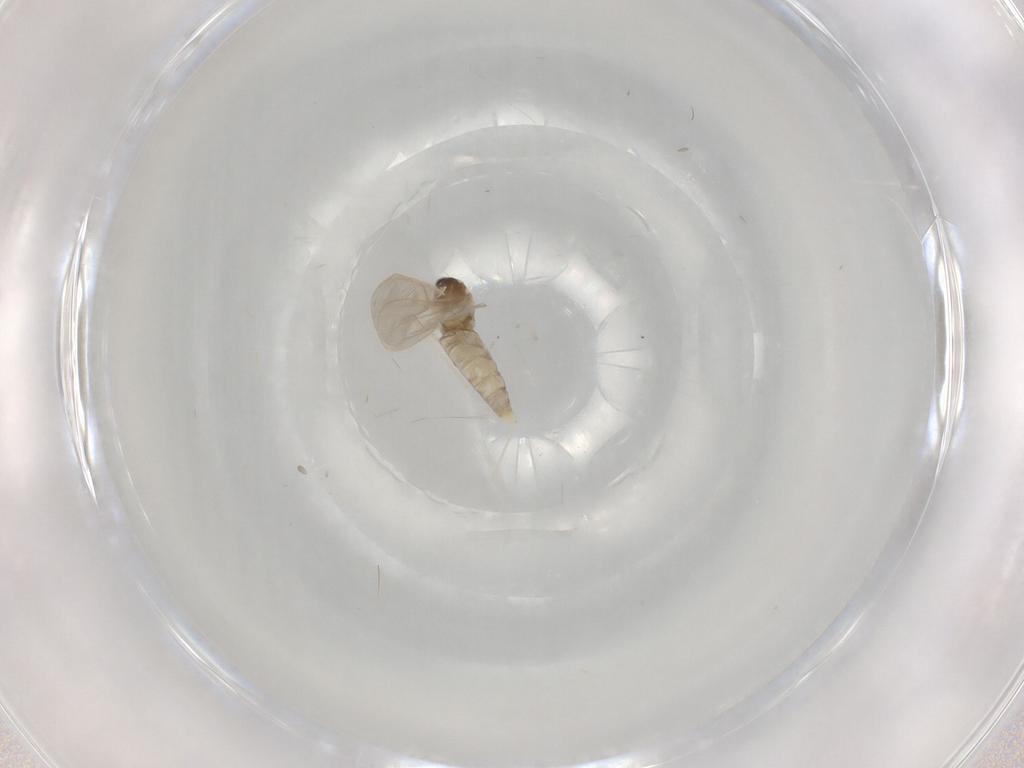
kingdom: Animalia
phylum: Arthropoda
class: Insecta
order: Diptera
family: Cecidomyiidae
